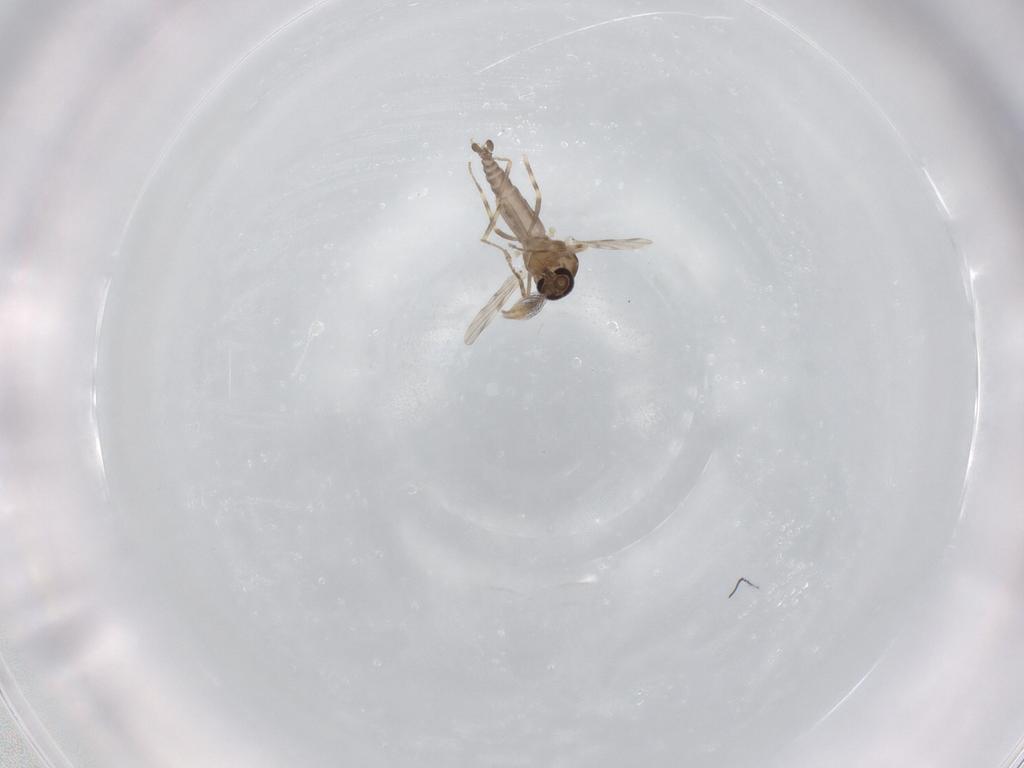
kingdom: Animalia
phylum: Arthropoda
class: Insecta
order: Diptera
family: Ceratopogonidae
